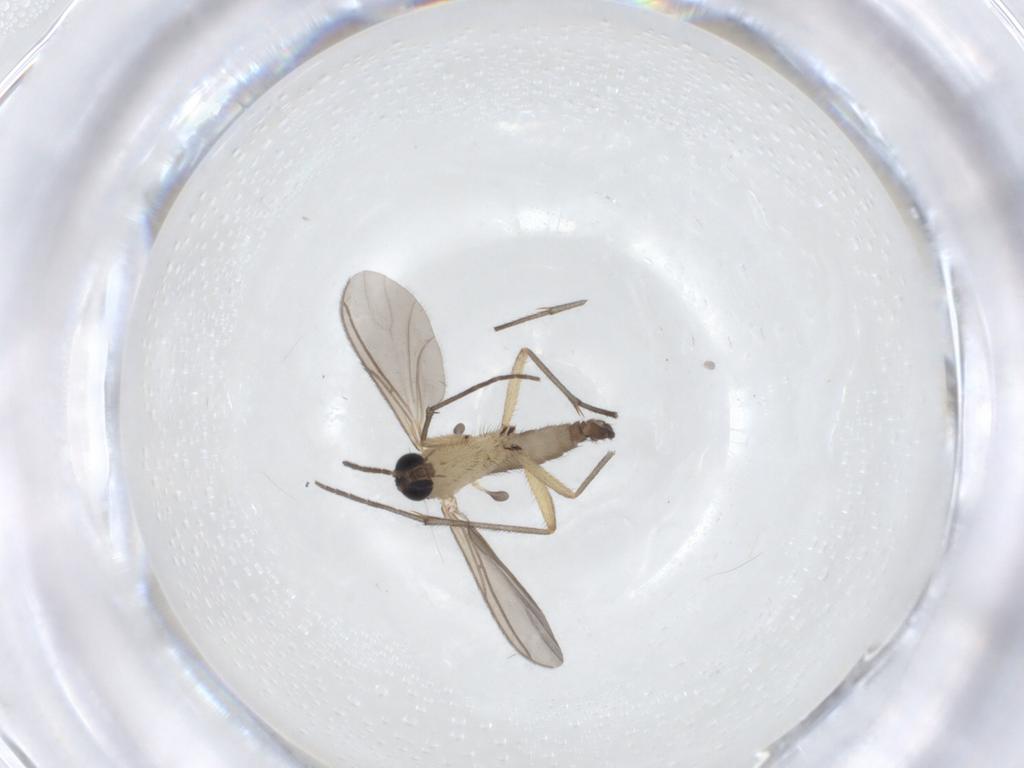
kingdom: Animalia
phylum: Arthropoda
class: Insecta
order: Diptera
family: Sciaridae
